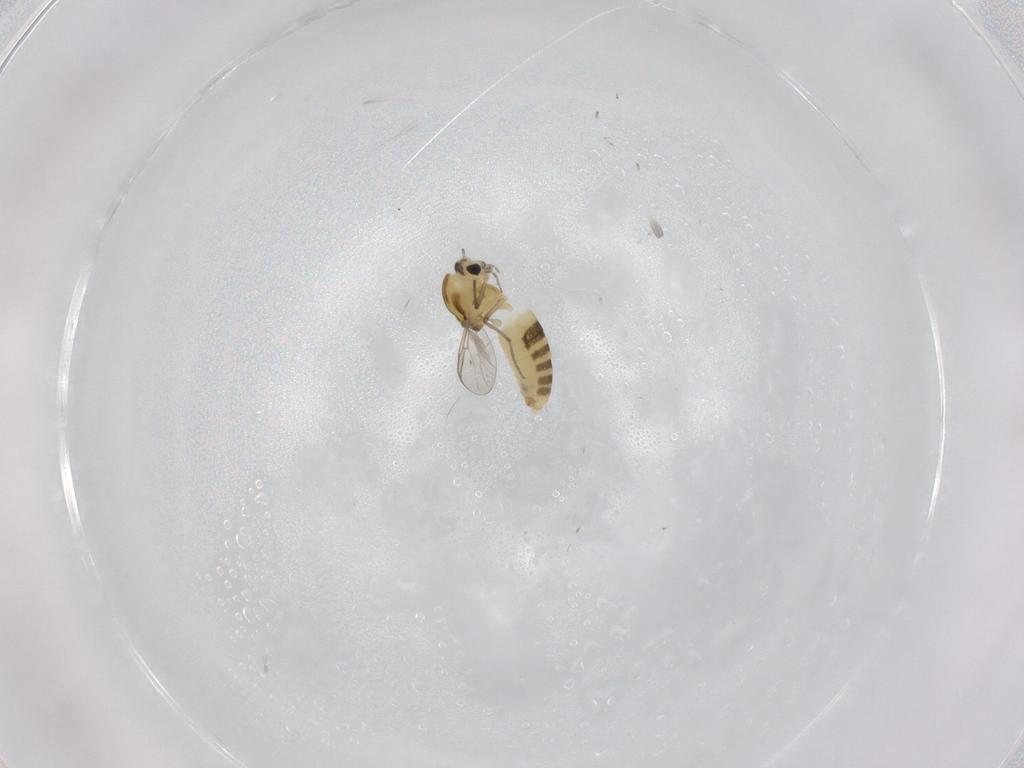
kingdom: Animalia
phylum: Arthropoda
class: Insecta
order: Diptera
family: Chironomidae
